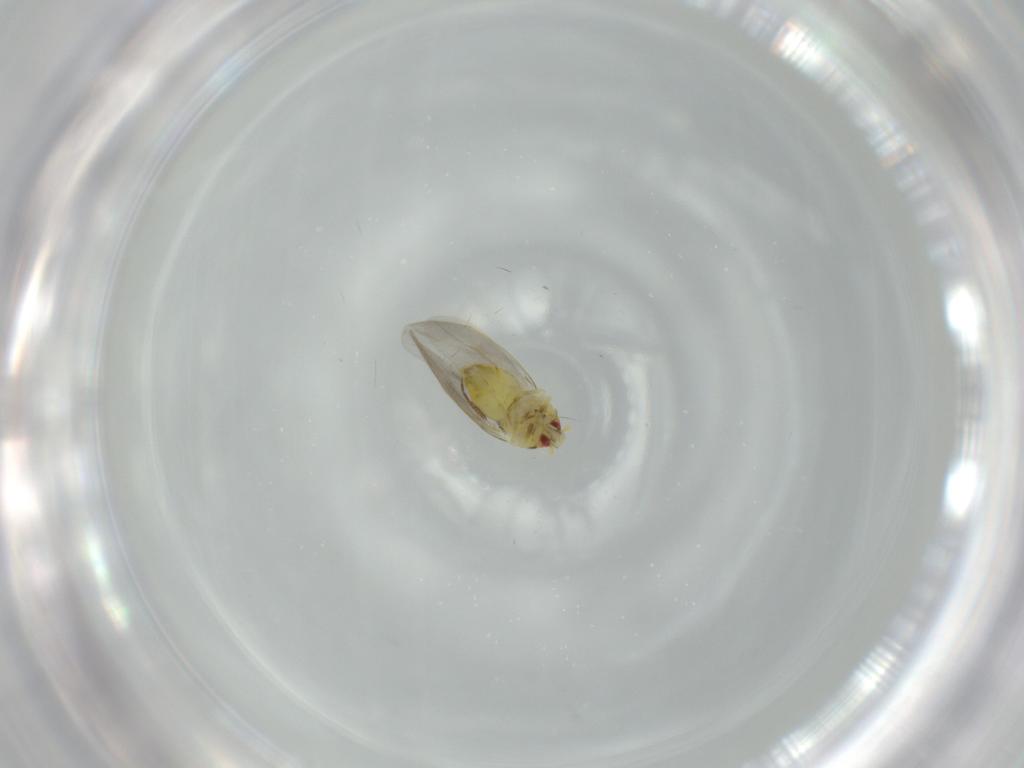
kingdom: Animalia
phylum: Arthropoda
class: Insecta
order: Hemiptera
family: Aleyrodidae
